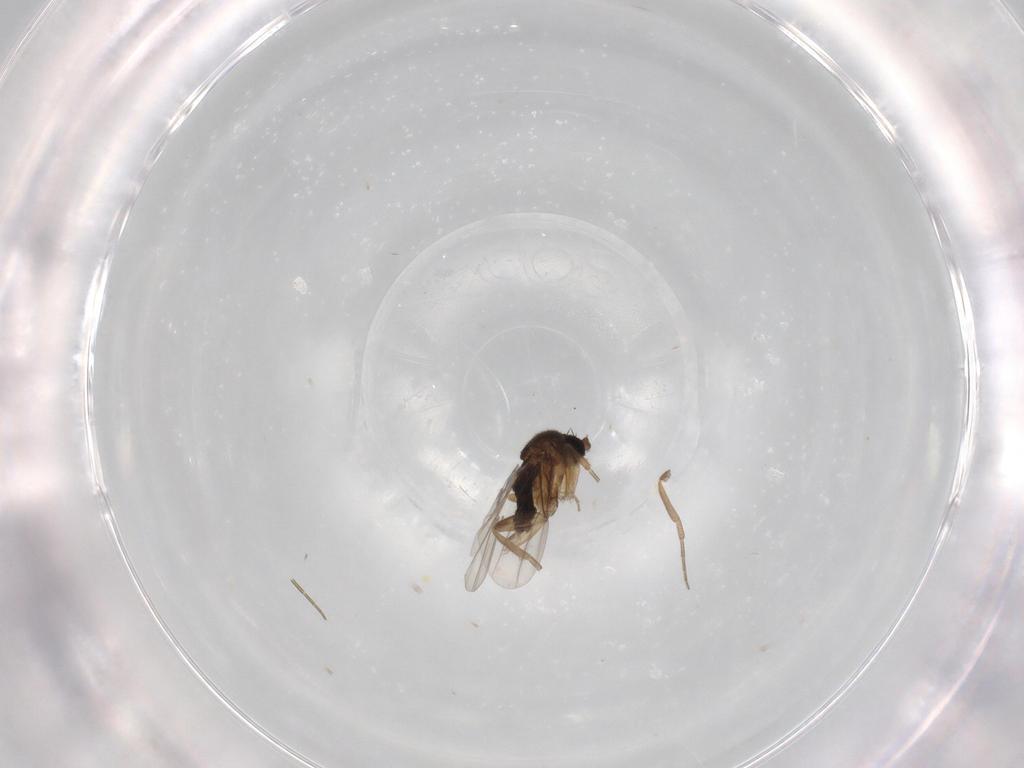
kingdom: Animalia
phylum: Arthropoda
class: Insecta
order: Diptera
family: Phoridae
